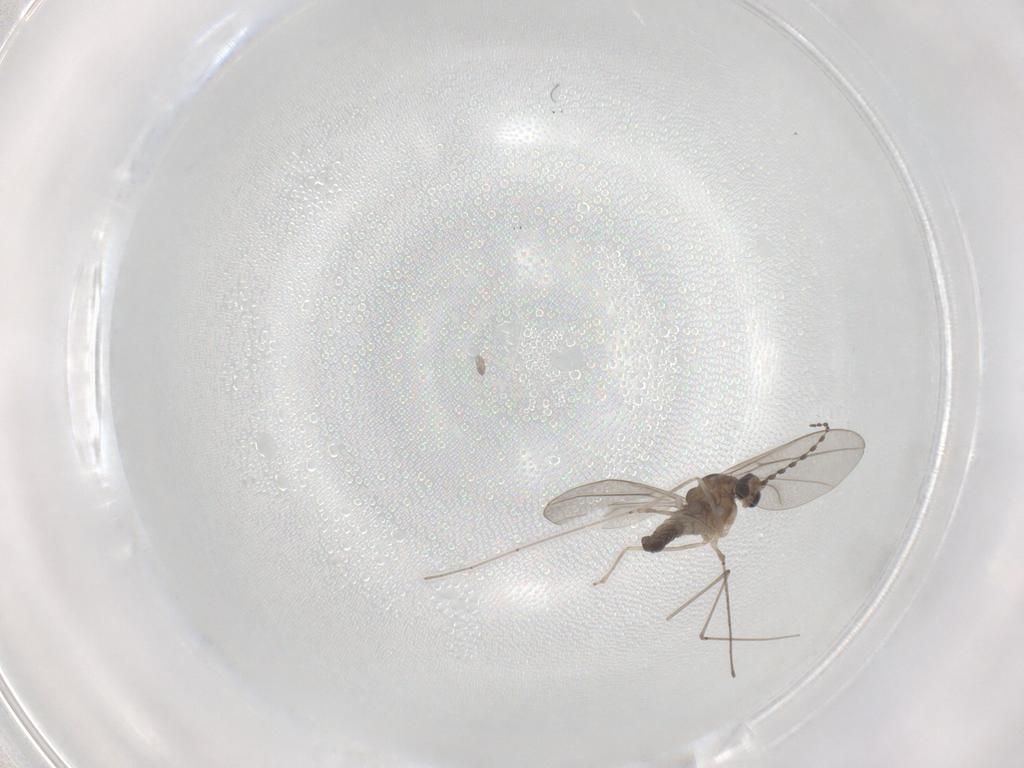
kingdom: Animalia
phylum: Arthropoda
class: Insecta
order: Diptera
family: Cecidomyiidae
